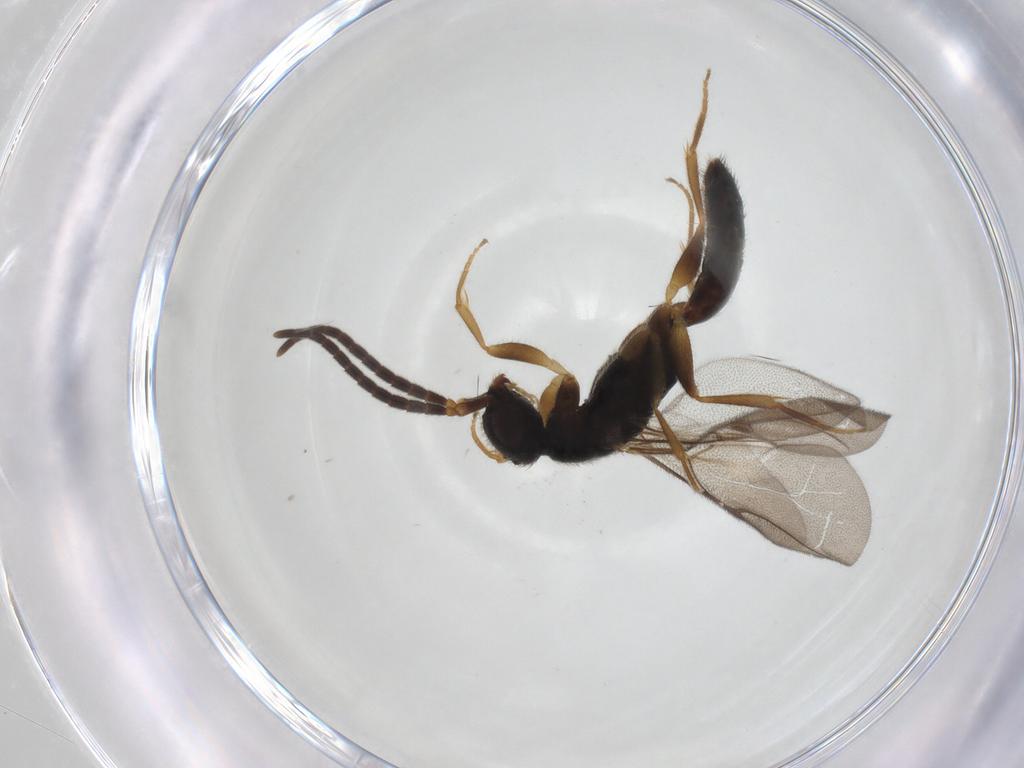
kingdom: Animalia
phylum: Arthropoda
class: Insecta
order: Hymenoptera
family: Bethylidae
